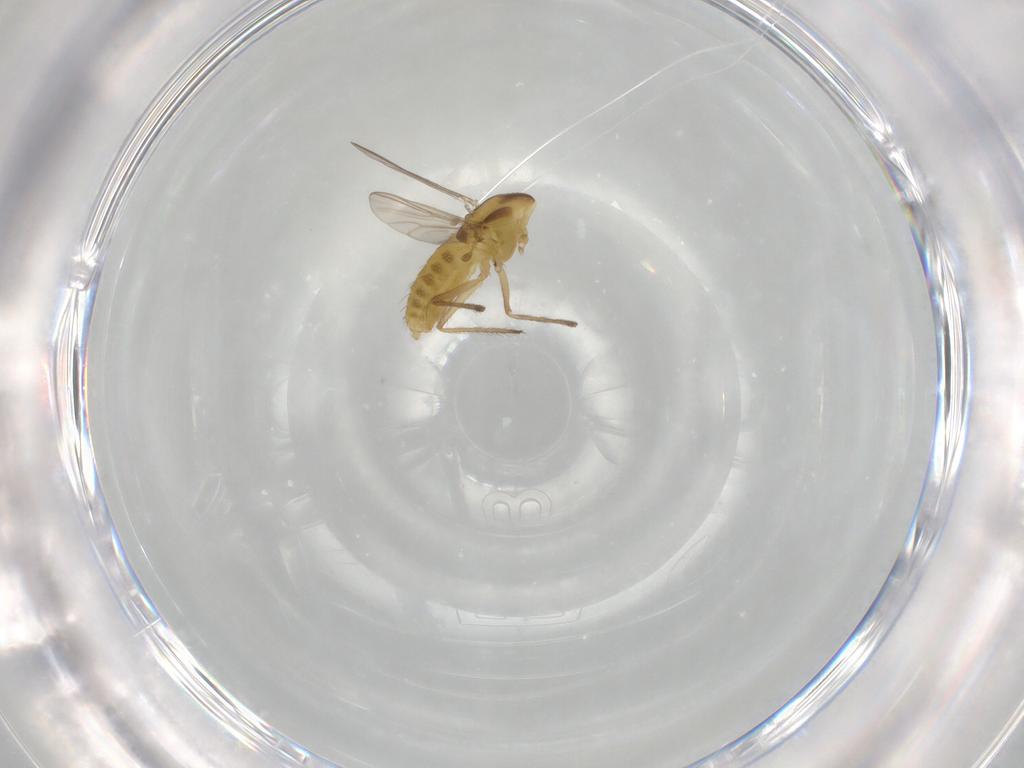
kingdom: Animalia
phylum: Arthropoda
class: Insecta
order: Diptera
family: Chironomidae
